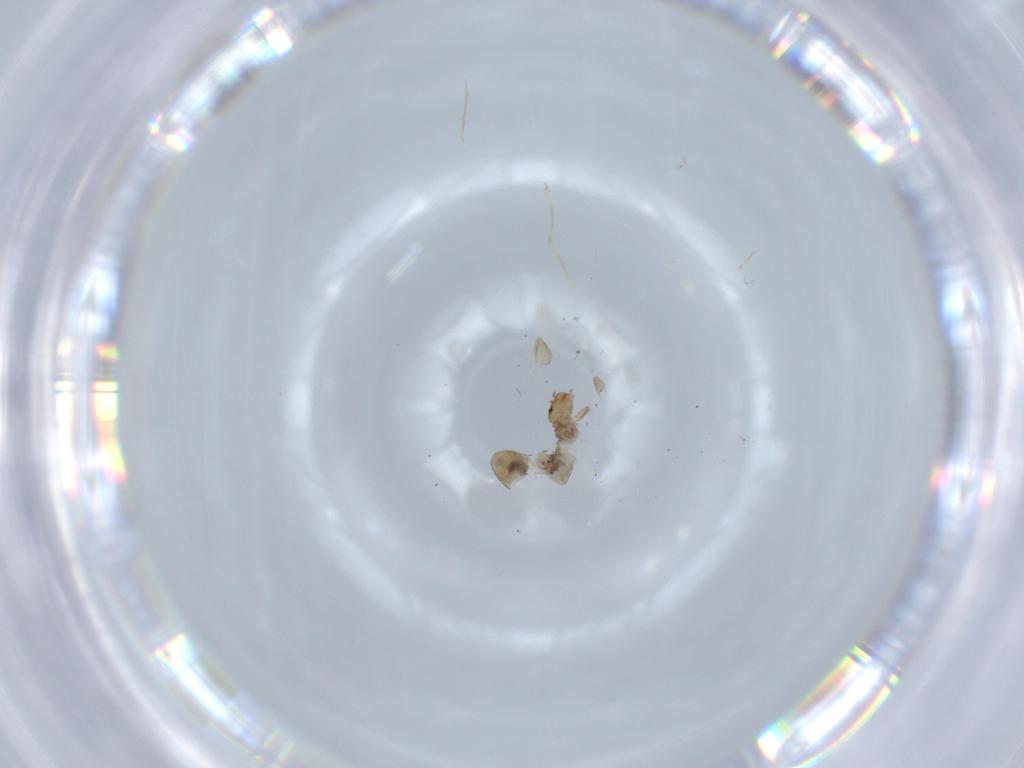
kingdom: Animalia
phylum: Arthropoda
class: Insecta
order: Psocodea
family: Liposcelididae
